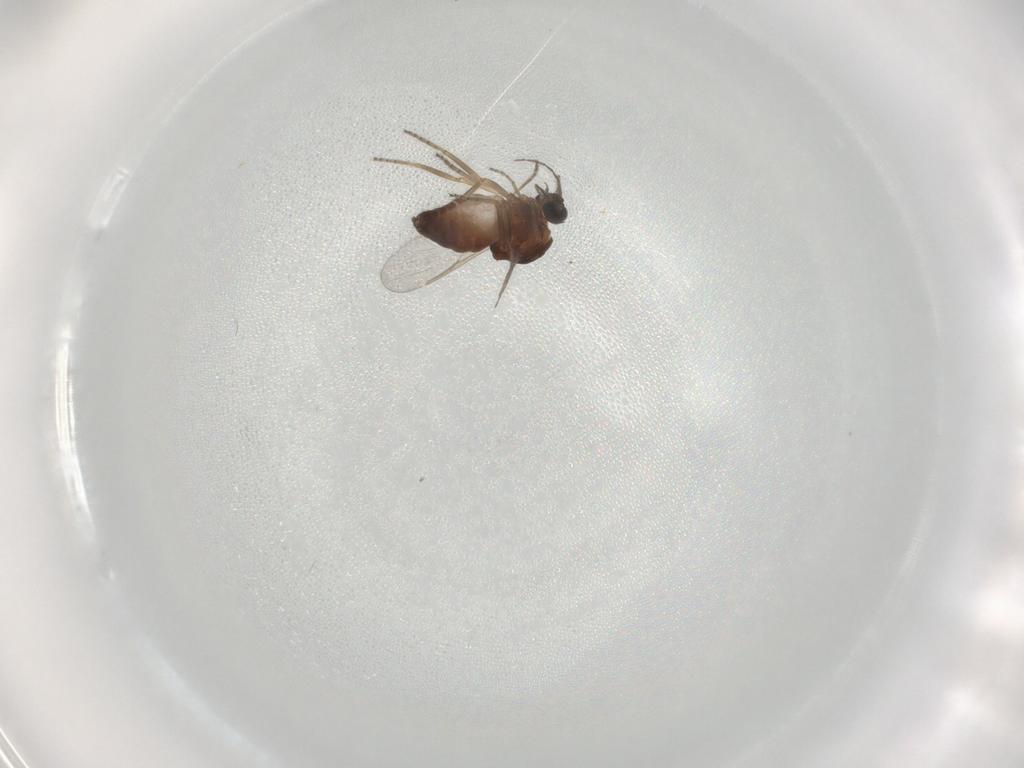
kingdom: Animalia
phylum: Arthropoda
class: Insecta
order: Diptera
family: Ceratopogonidae
